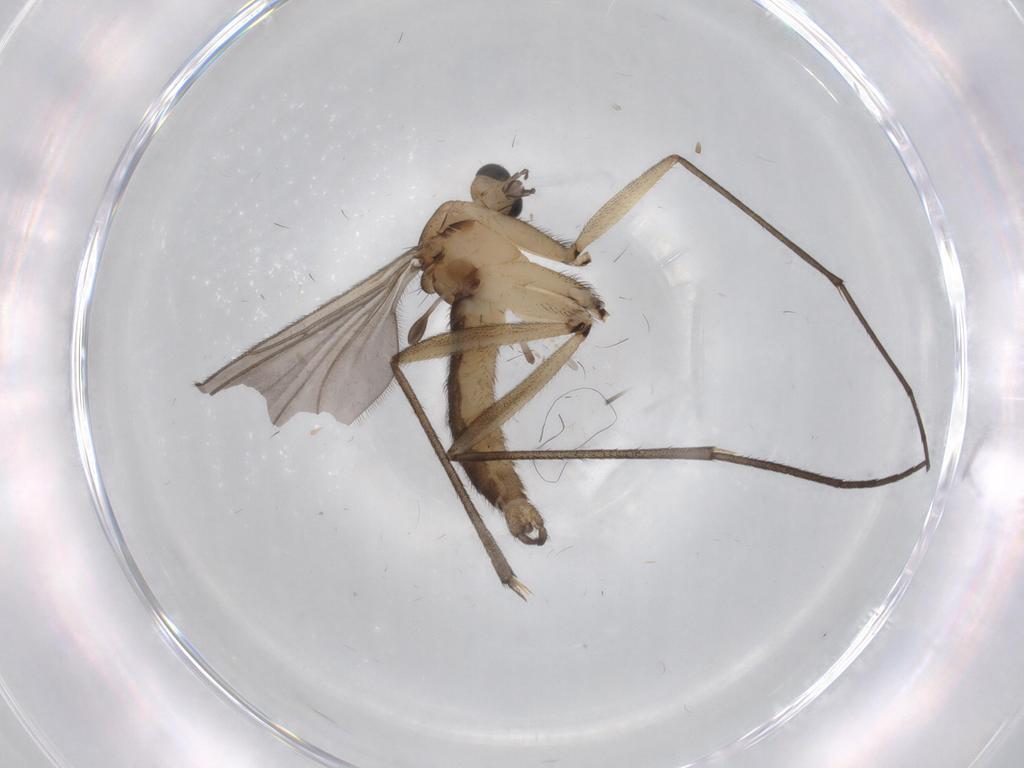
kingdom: Animalia
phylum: Arthropoda
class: Insecta
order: Diptera
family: Sciaridae
